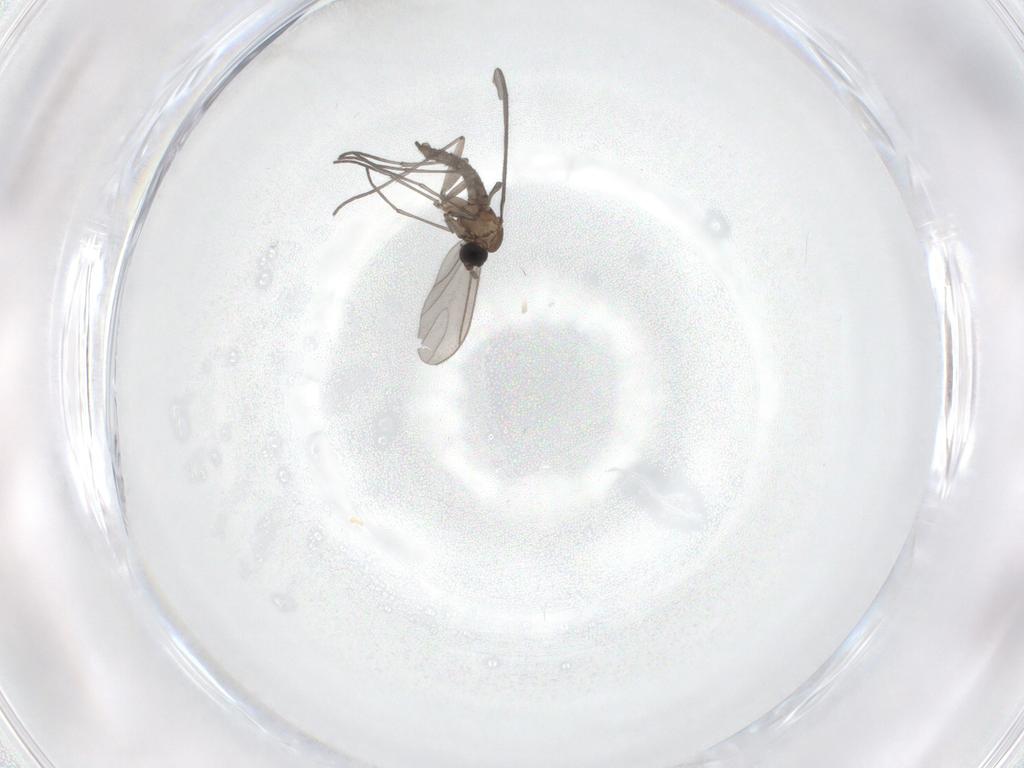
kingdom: Animalia
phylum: Arthropoda
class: Insecta
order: Diptera
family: Sciaridae
